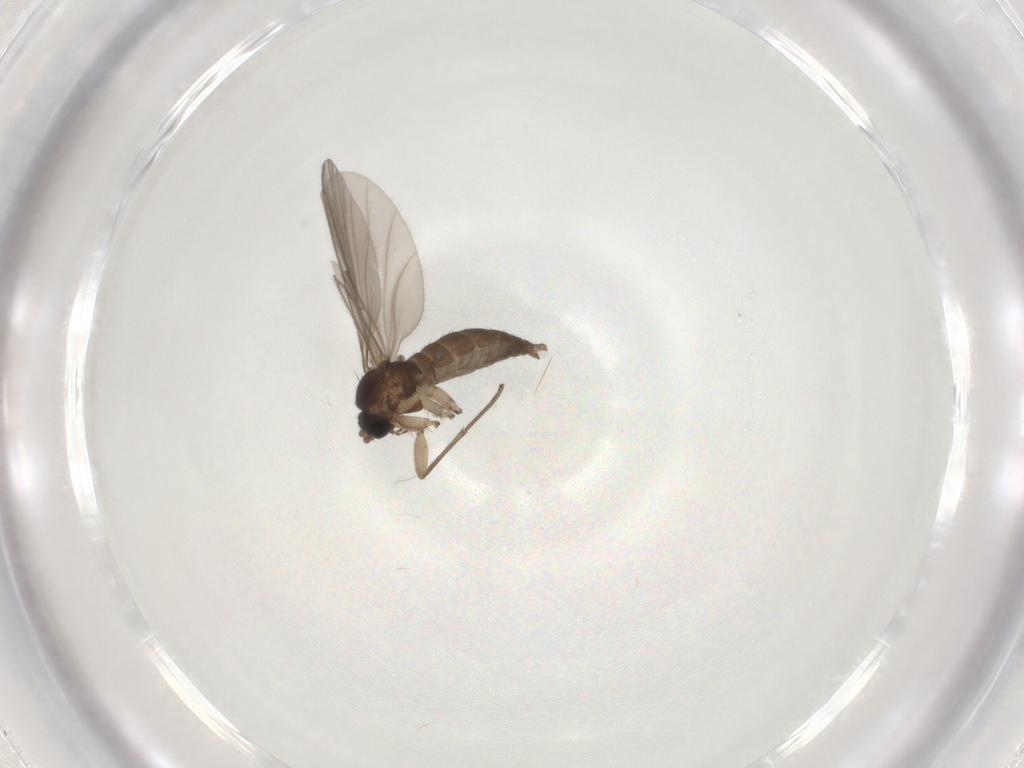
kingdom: Animalia
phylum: Arthropoda
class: Insecta
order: Diptera
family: Sciaridae
